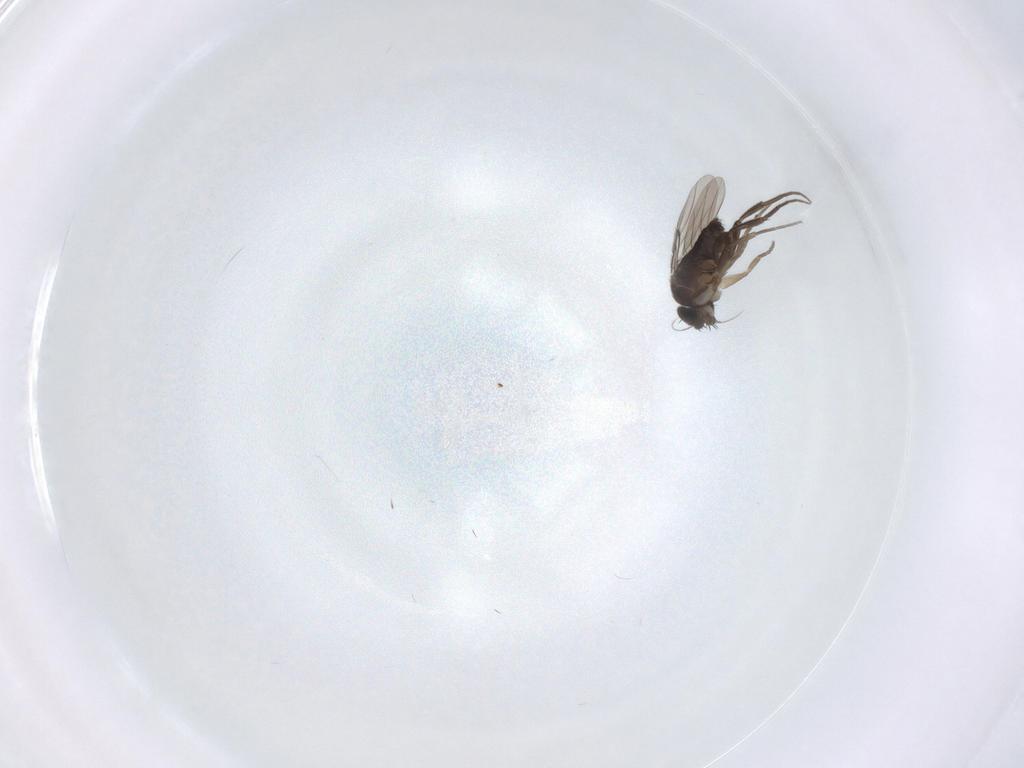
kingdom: Animalia
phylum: Arthropoda
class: Insecta
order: Diptera
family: Phoridae
